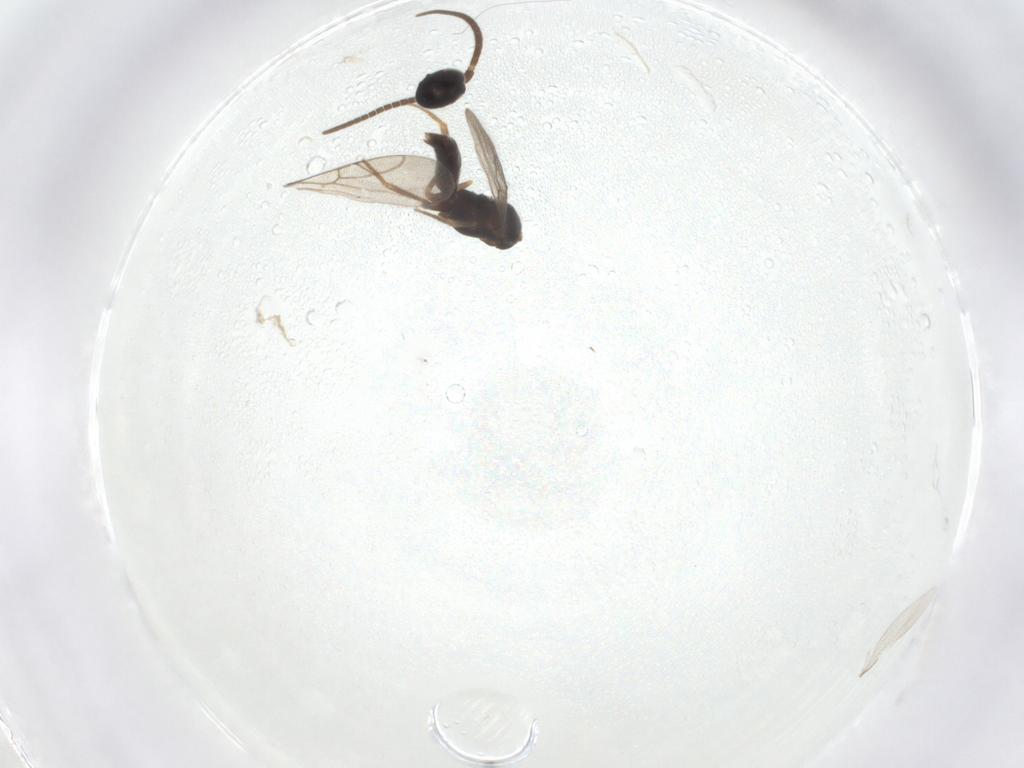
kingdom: Animalia
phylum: Arthropoda
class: Insecta
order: Hymenoptera
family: Sclerogibbidae
